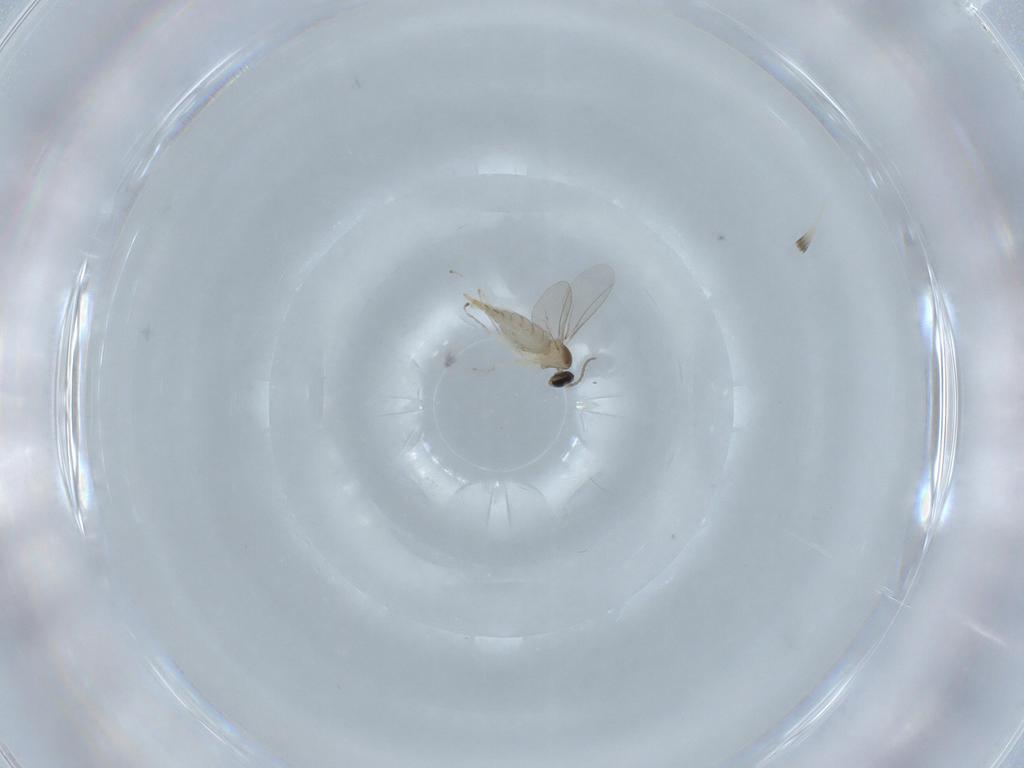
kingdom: Animalia
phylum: Arthropoda
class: Insecta
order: Diptera
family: Cecidomyiidae
